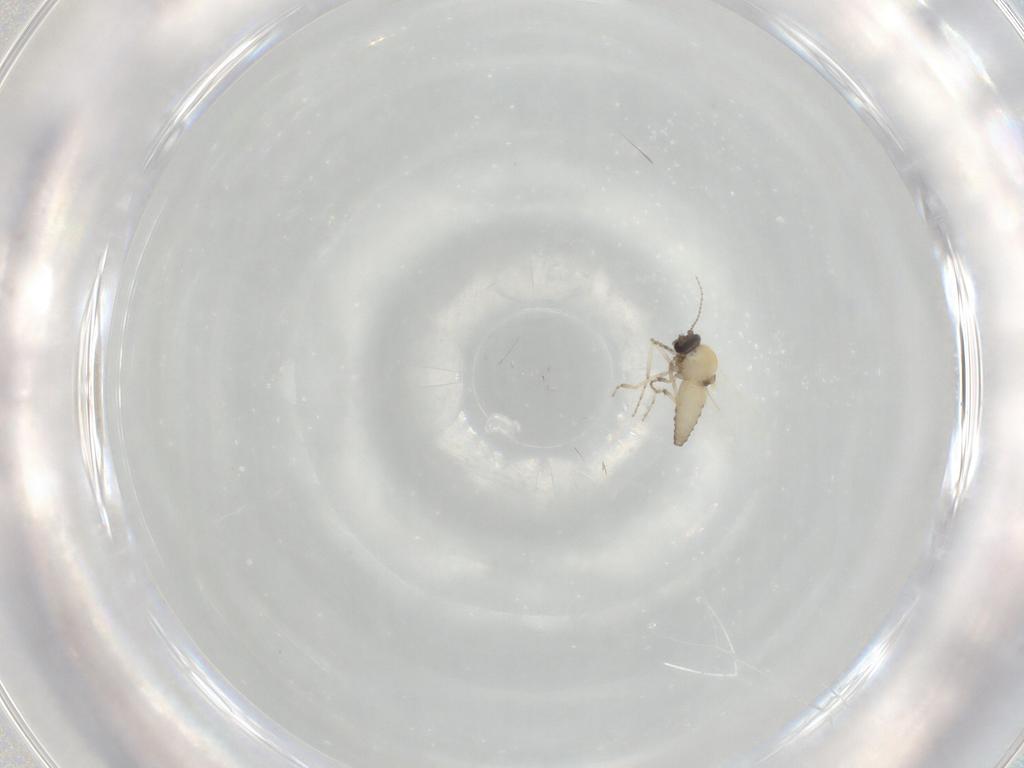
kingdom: Animalia
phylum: Arthropoda
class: Insecta
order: Diptera
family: Ceratopogonidae
